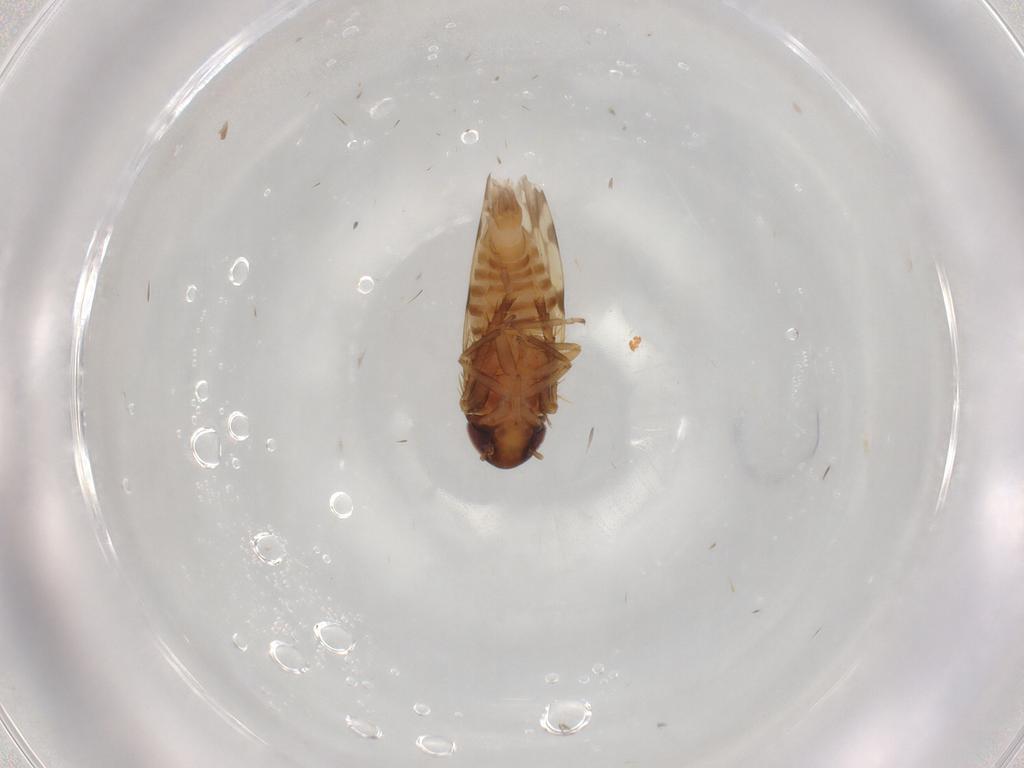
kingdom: Animalia
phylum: Arthropoda
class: Insecta
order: Hemiptera
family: Cicadellidae
